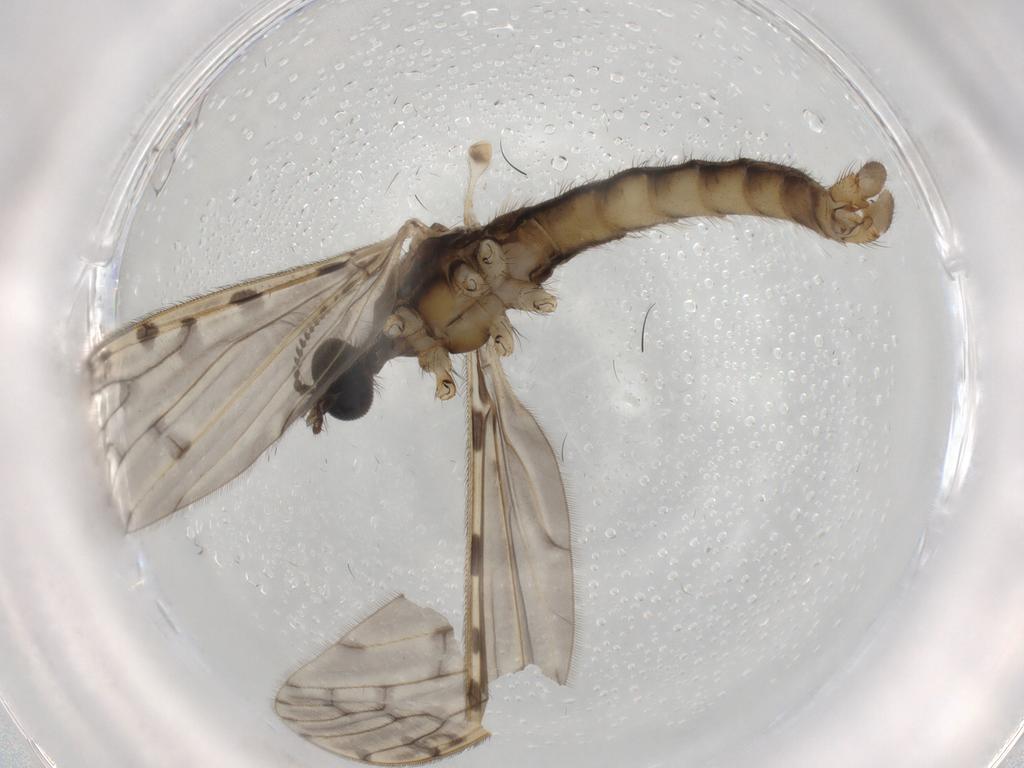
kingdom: Animalia
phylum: Arthropoda
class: Insecta
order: Diptera
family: Limoniidae
